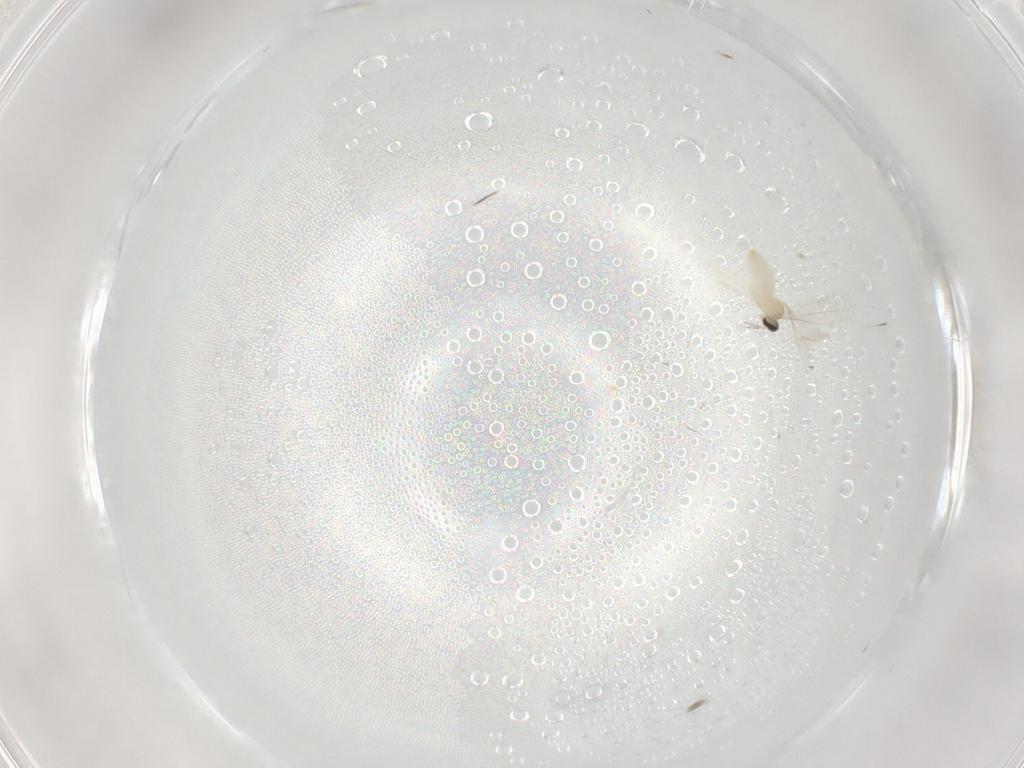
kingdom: Animalia
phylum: Arthropoda
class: Insecta
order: Diptera
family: Cecidomyiidae
